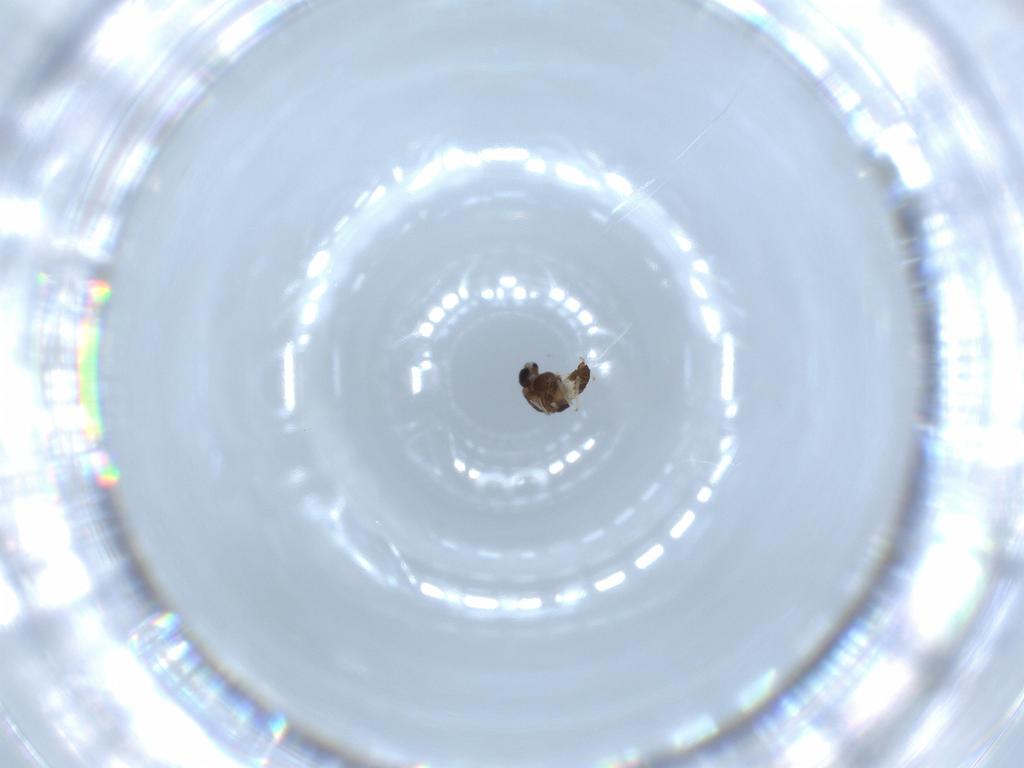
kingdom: Animalia
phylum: Arthropoda
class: Insecta
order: Diptera
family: Chironomidae
